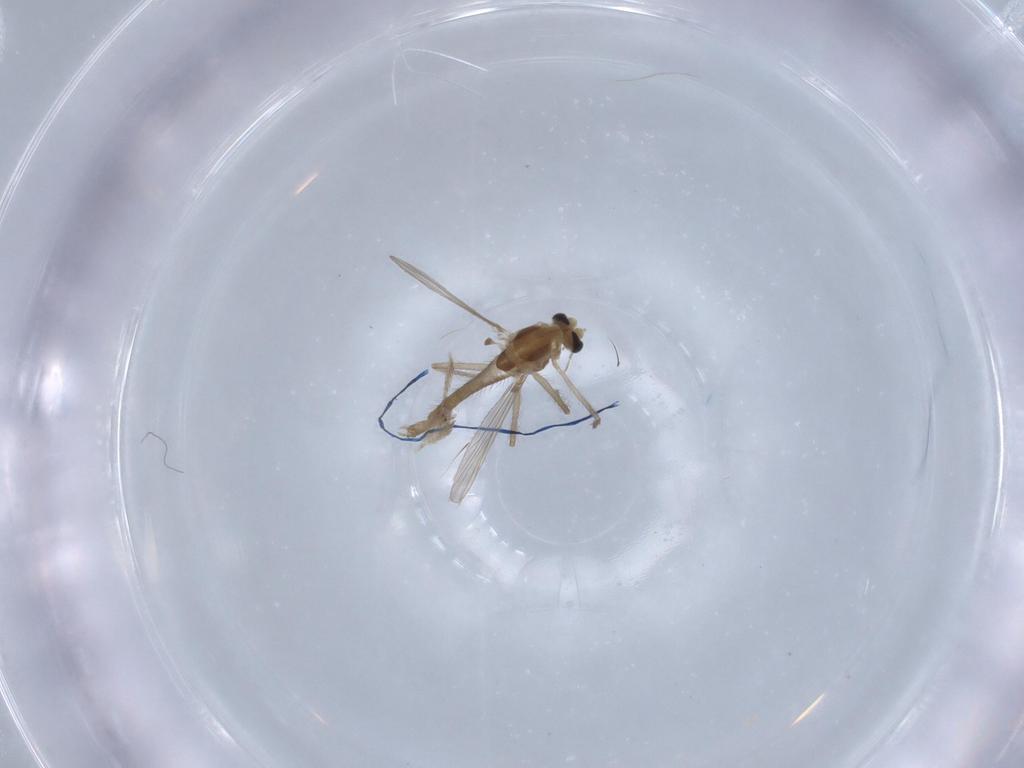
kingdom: Animalia
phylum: Arthropoda
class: Insecta
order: Diptera
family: Chironomidae
